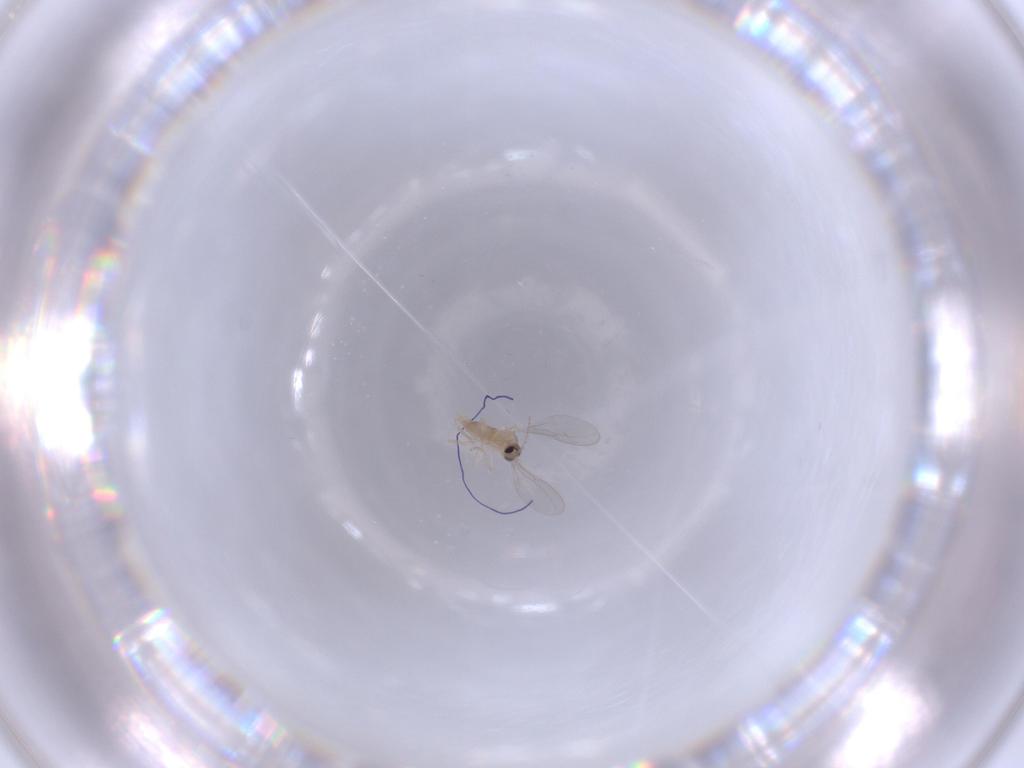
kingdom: Animalia
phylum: Arthropoda
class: Insecta
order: Diptera
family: Cecidomyiidae
